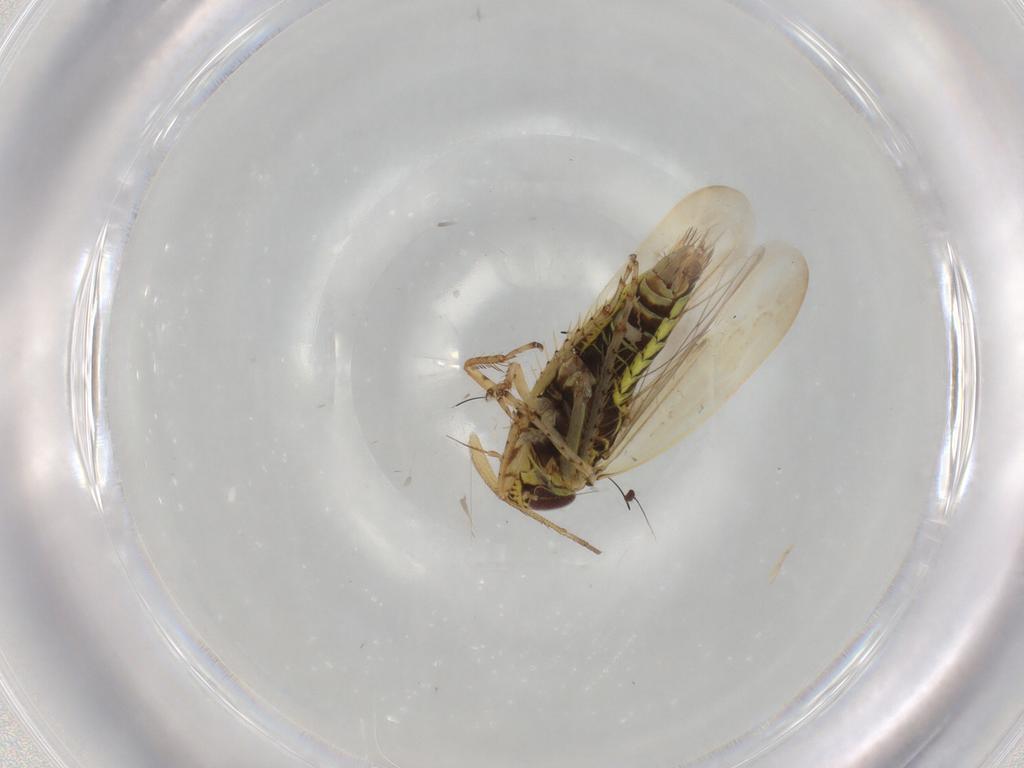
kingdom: Animalia
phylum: Arthropoda
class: Insecta
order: Hemiptera
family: Cicadellidae
